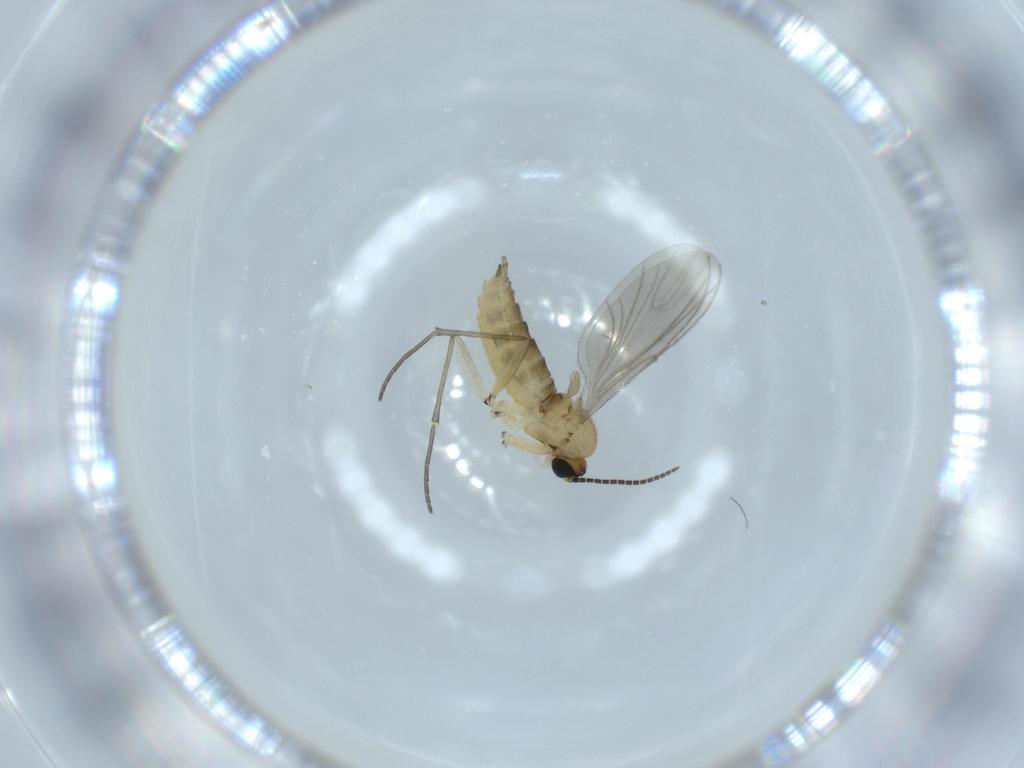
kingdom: Animalia
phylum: Arthropoda
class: Insecta
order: Diptera
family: Sciaridae
